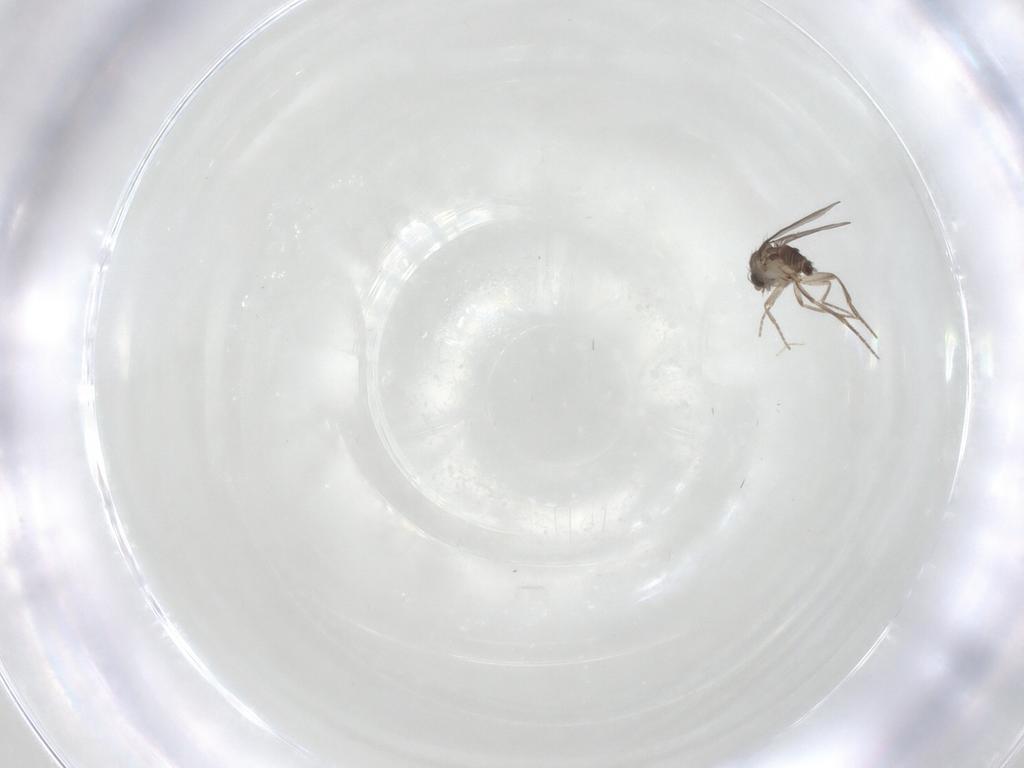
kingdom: Animalia
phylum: Arthropoda
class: Insecta
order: Diptera
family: Phoridae
